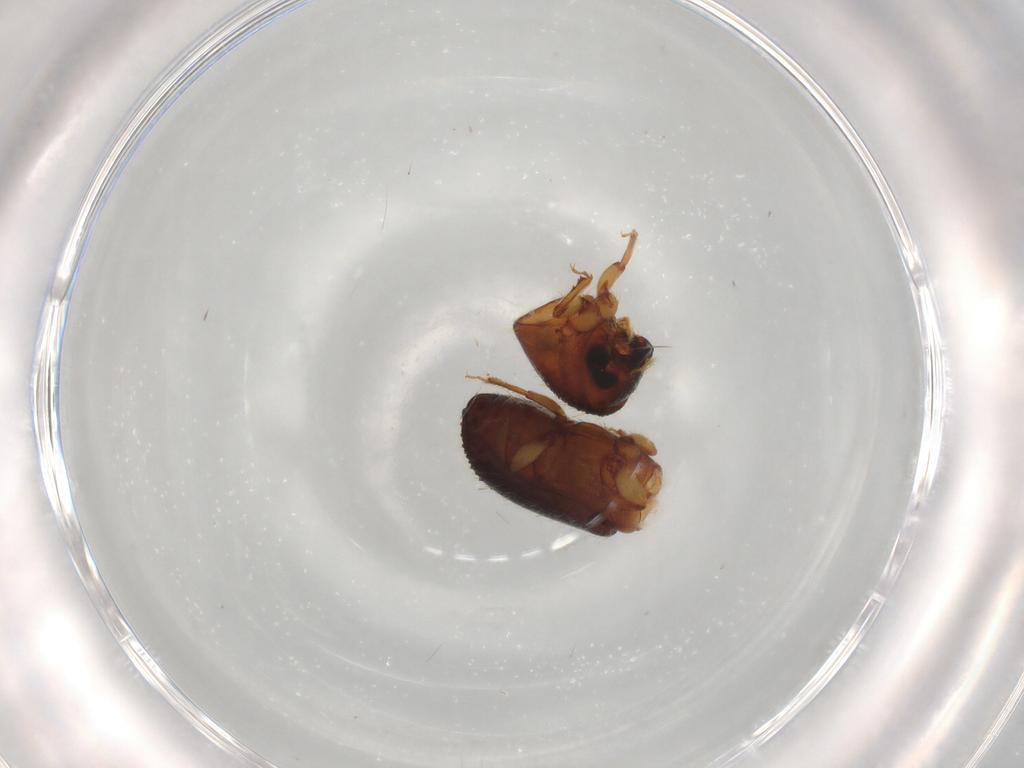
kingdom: Animalia
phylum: Arthropoda
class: Insecta
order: Coleoptera
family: Curculionidae
